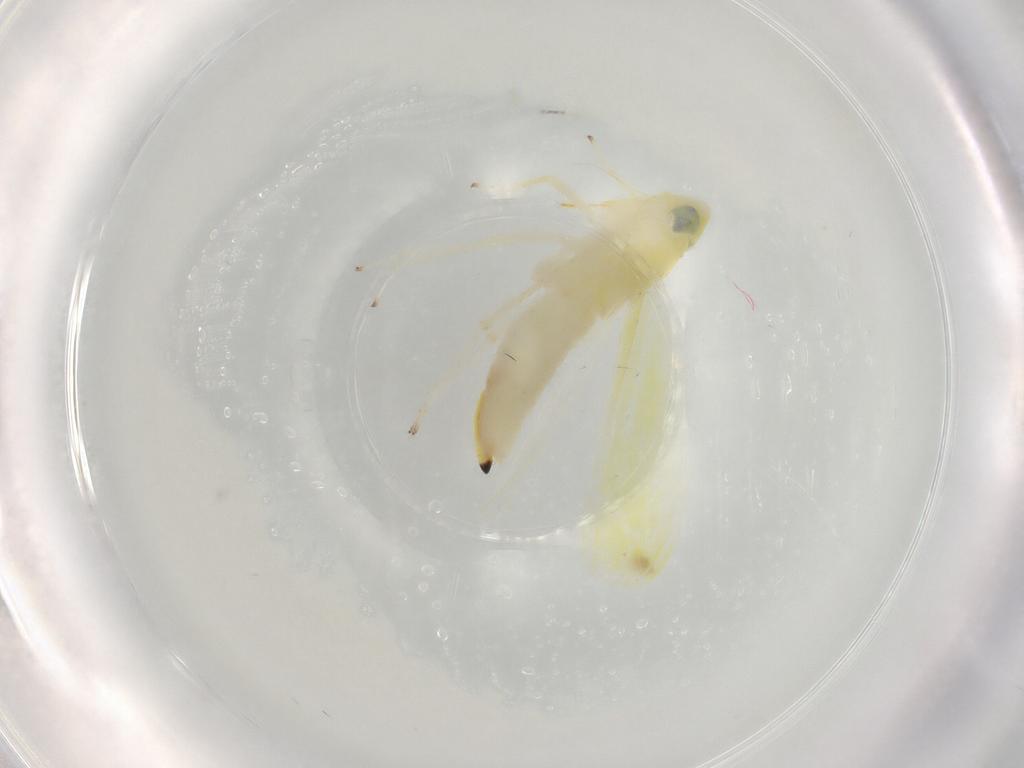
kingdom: Animalia
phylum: Arthropoda
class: Insecta
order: Hemiptera
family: Cicadellidae
